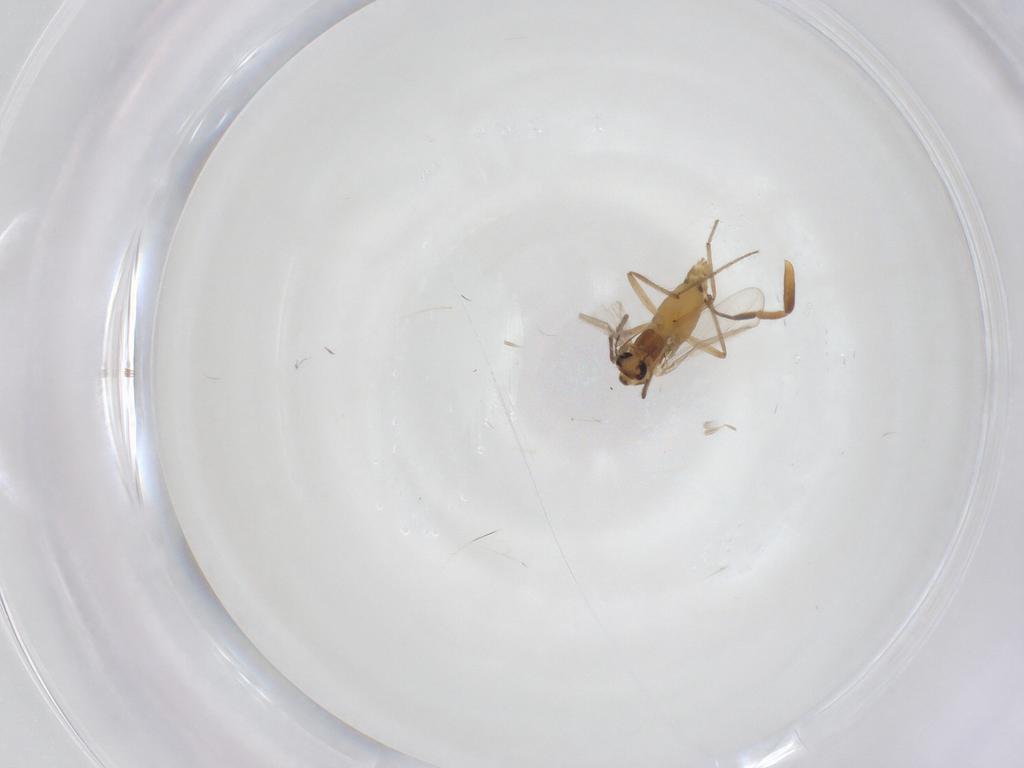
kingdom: Animalia
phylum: Arthropoda
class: Insecta
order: Diptera
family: Chironomidae
